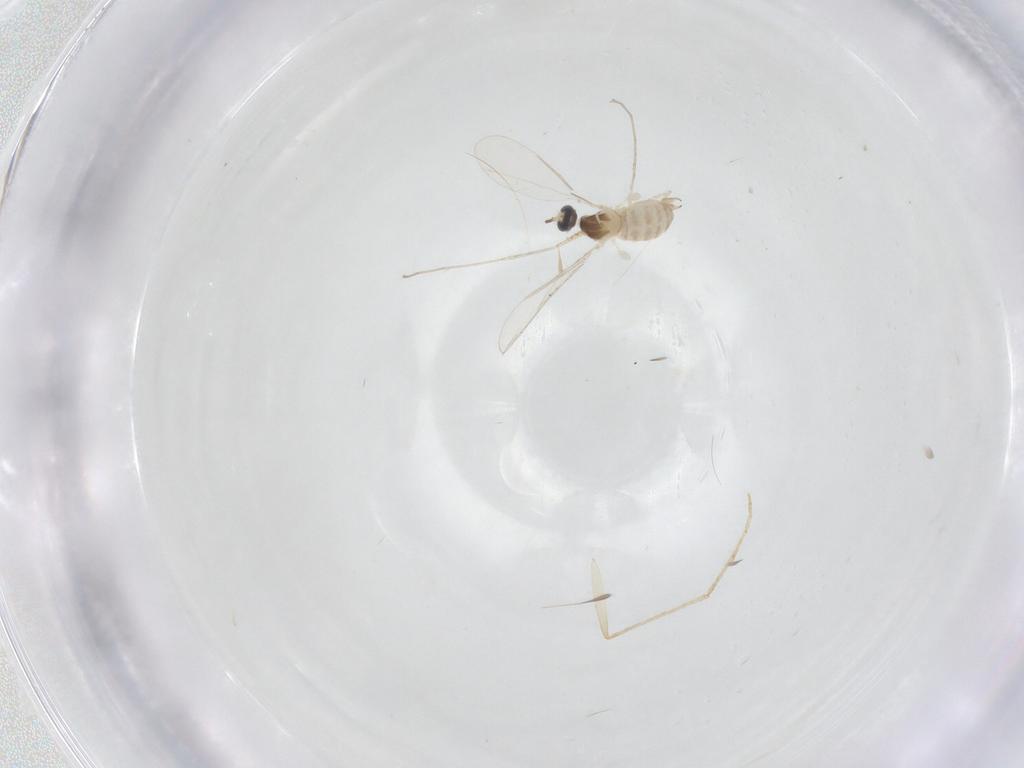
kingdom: Animalia
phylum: Arthropoda
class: Insecta
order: Diptera
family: Cecidomyiidae
